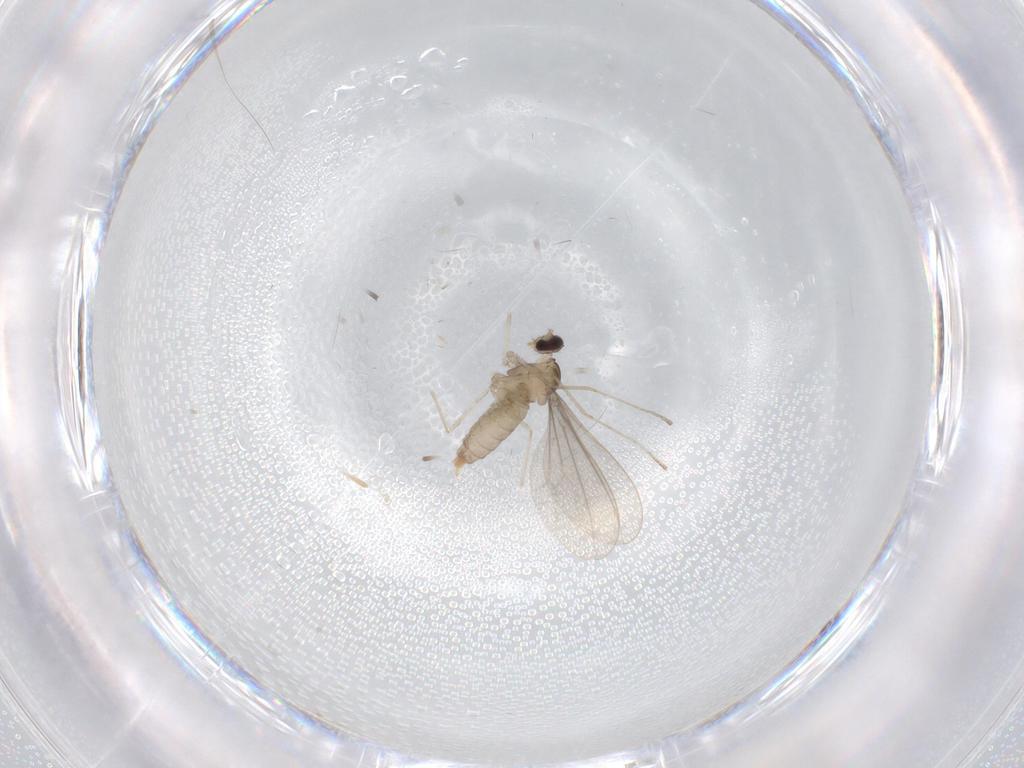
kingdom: Animalia
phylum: Arthropoda
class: Insecta
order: Diptera
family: Cecidomyiidae
